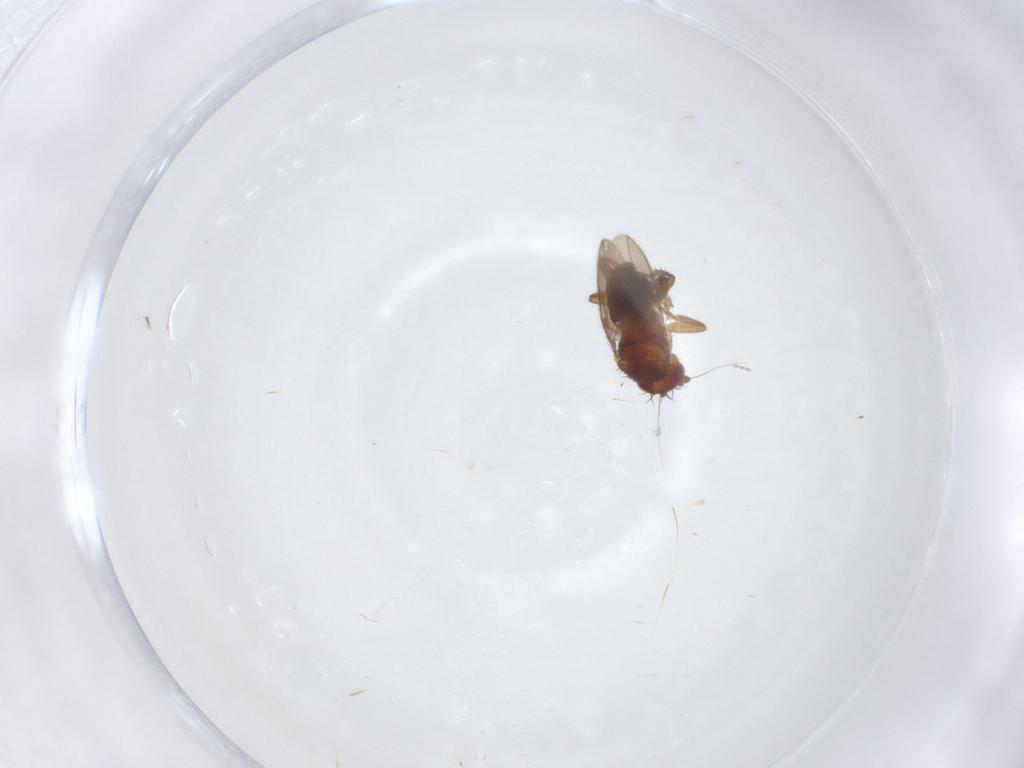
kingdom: Animalia
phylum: Arthropoda
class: Insecta
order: Diptera
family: Sphaeroceridae
